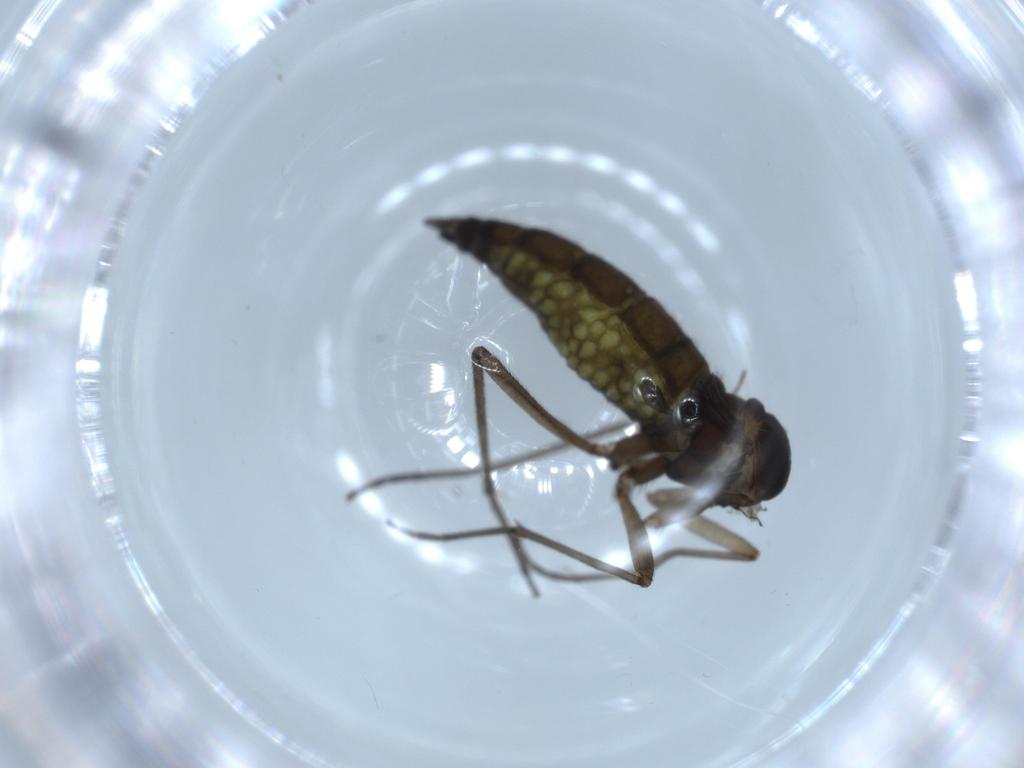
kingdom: Animalia
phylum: Arthropoda
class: Insecta
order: Diptera
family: Sciaridae
